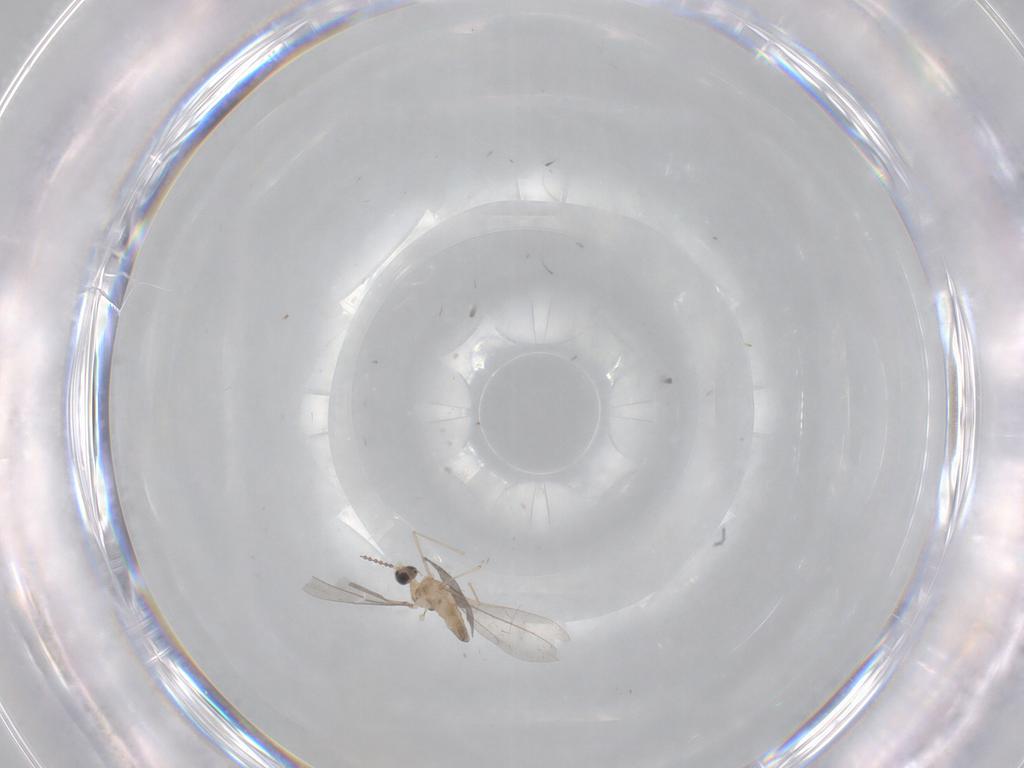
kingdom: Animalia
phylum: Arthropoda
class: Insecta
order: Diptera
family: Cecidomyiidae
